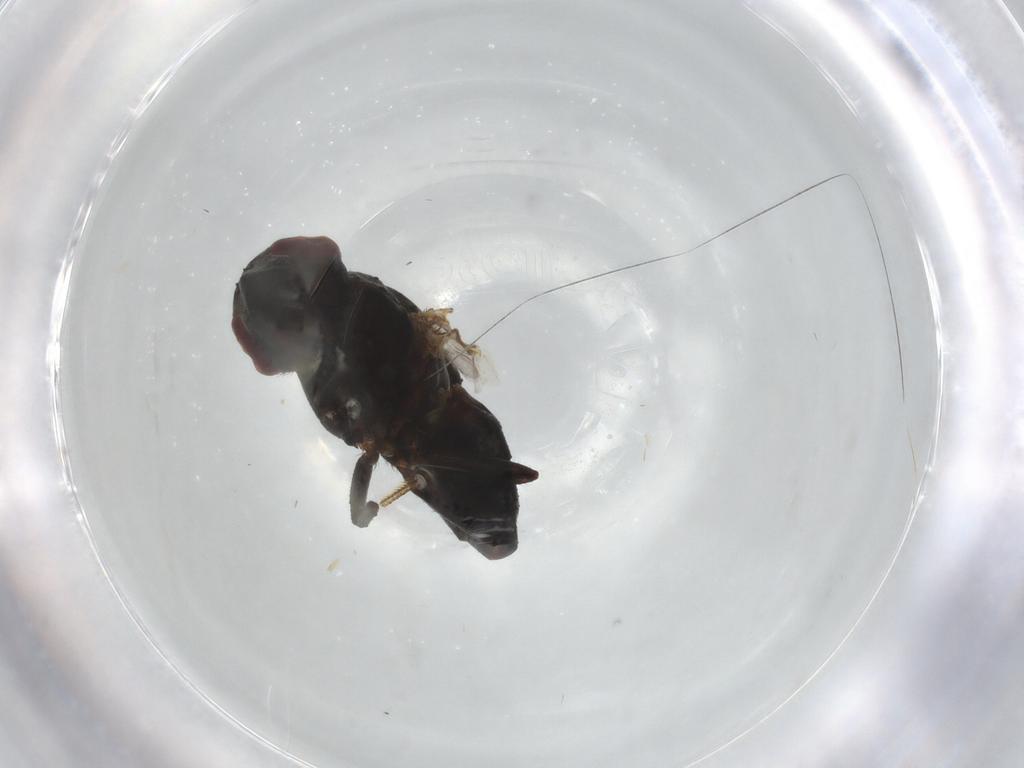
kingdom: Animalia
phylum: Arthropoda
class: Insecta
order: Diptera
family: Ephydridae
